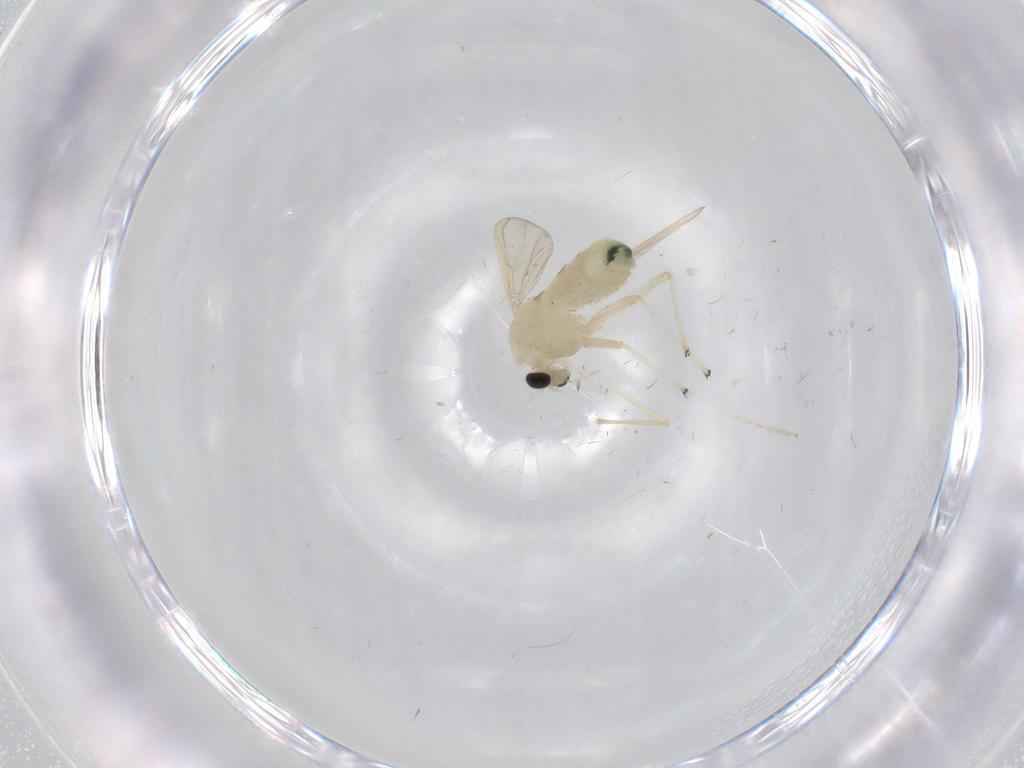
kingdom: Animalia
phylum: Arthropoda
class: Insecta
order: Diptera
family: Chironomidae
